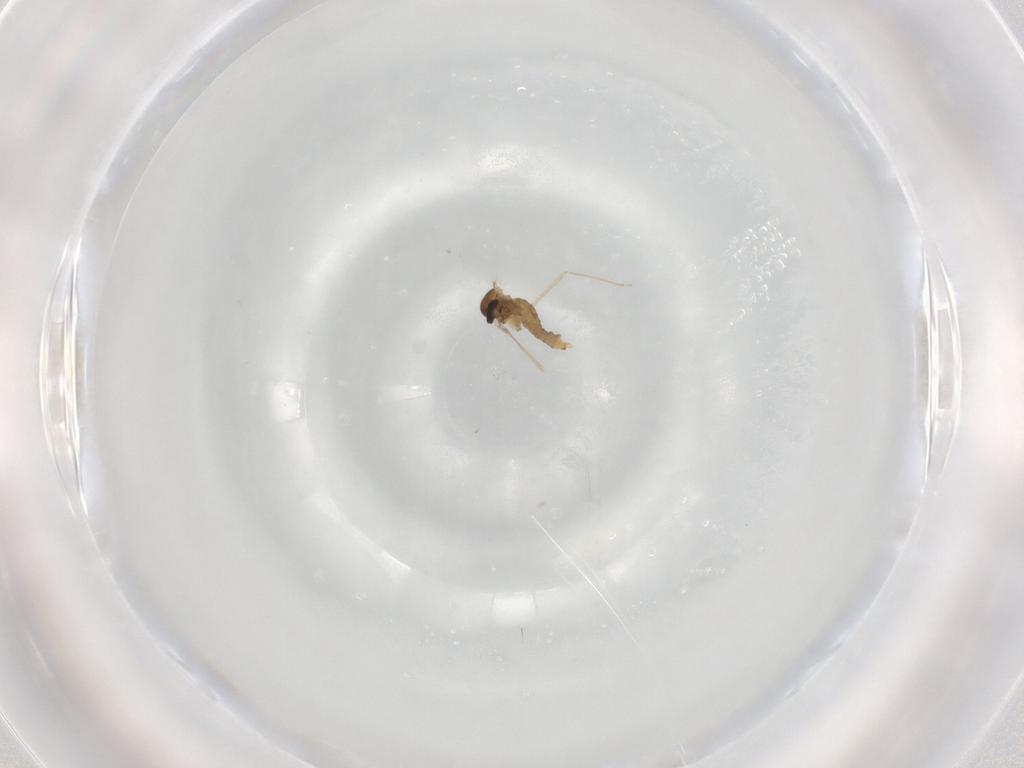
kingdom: Animalia
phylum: Arthropoda
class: Insecta
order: Diptera
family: Cecidomyiidae
